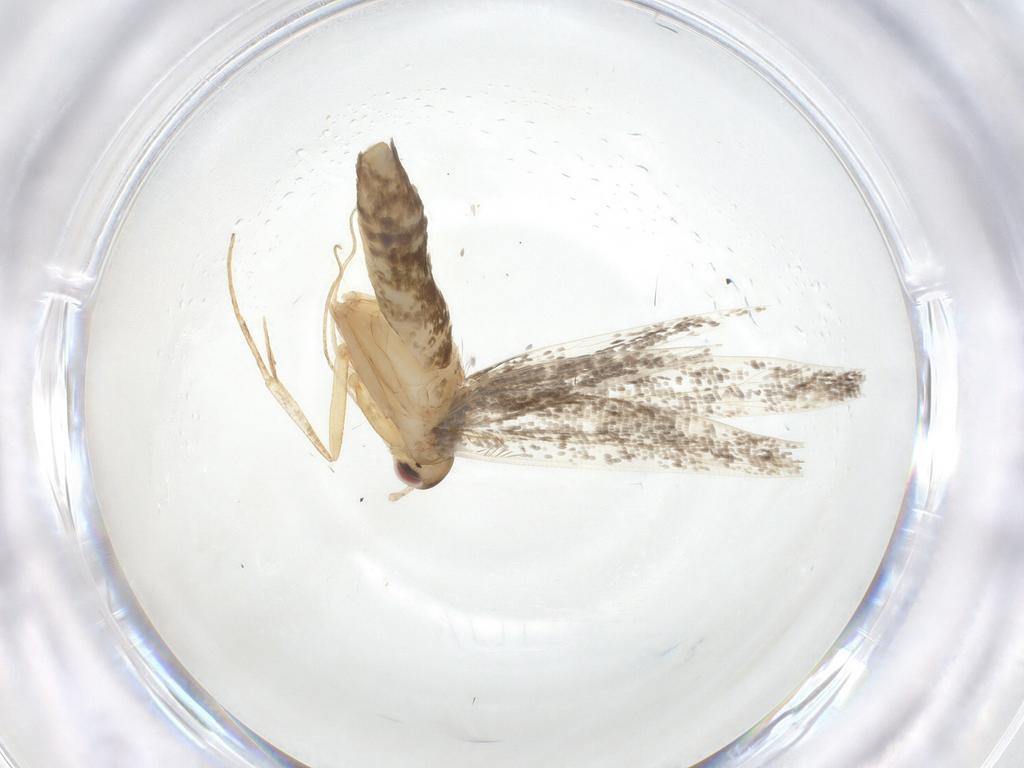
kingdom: Animalia
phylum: Arthropoda
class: Insecta
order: Lepidoptera
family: Cosmopterigidae
